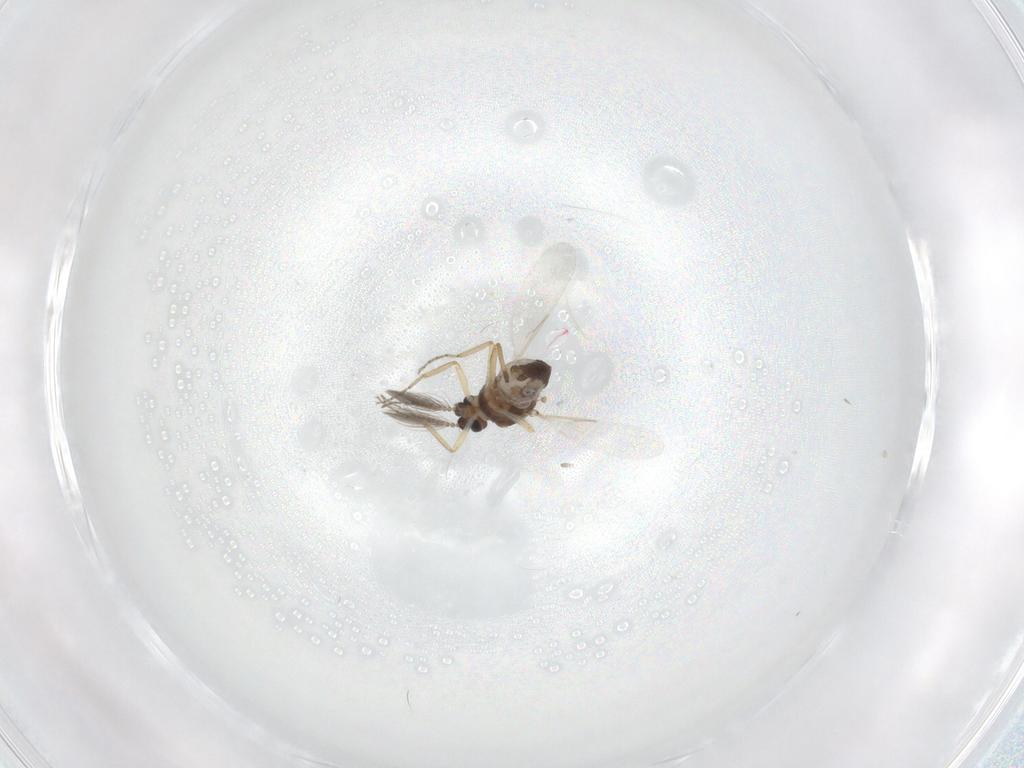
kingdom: Animalia
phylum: Arthropoda
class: Insecta
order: Diptera
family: Ceratopogonidae
